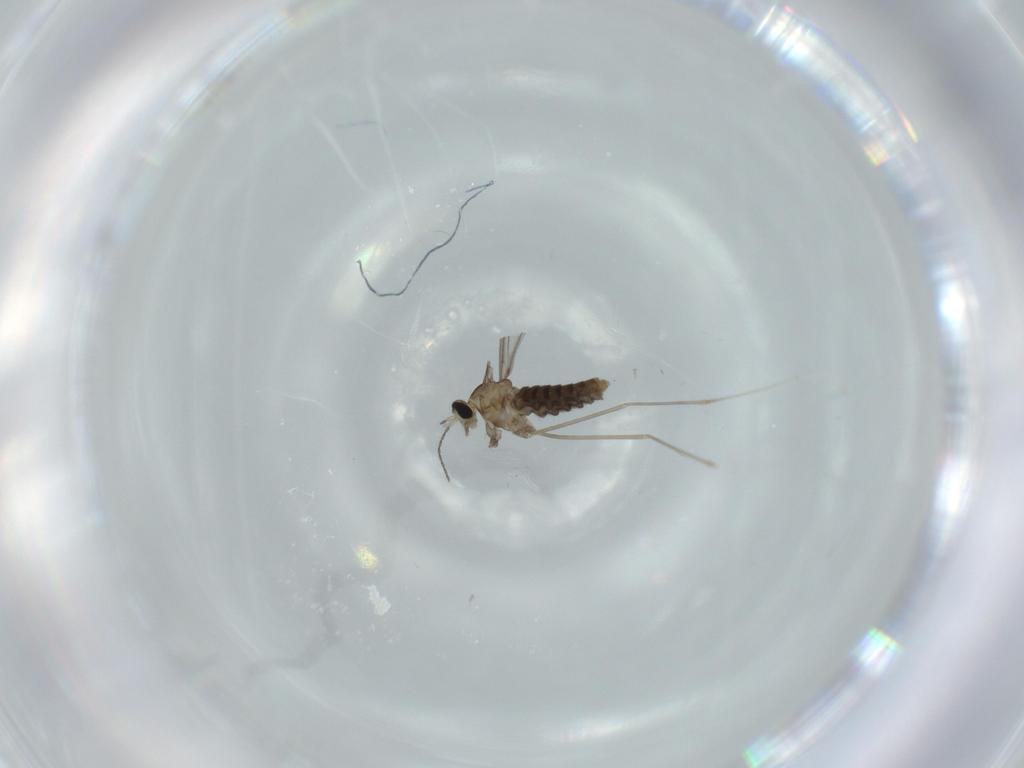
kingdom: Animalia
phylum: Arthropoda
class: Insecta
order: Diptera
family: Cecidomyiidae
